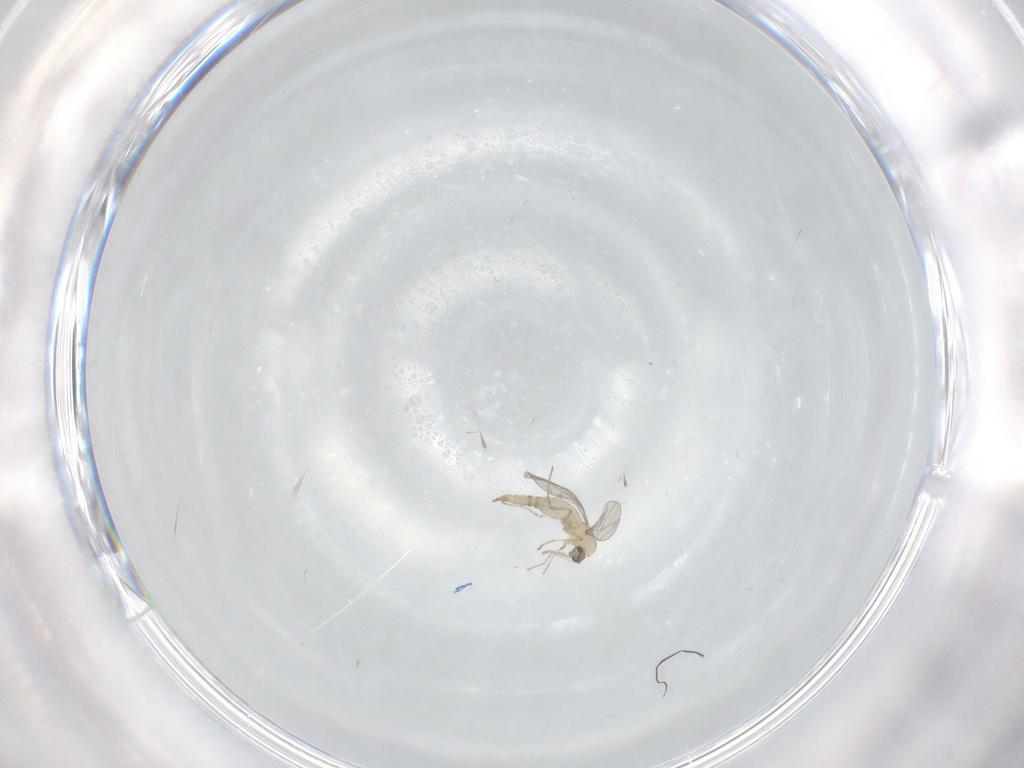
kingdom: Animalia
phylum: Arthropoda
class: Insecta
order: Diptera
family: Cecidomyiidae
